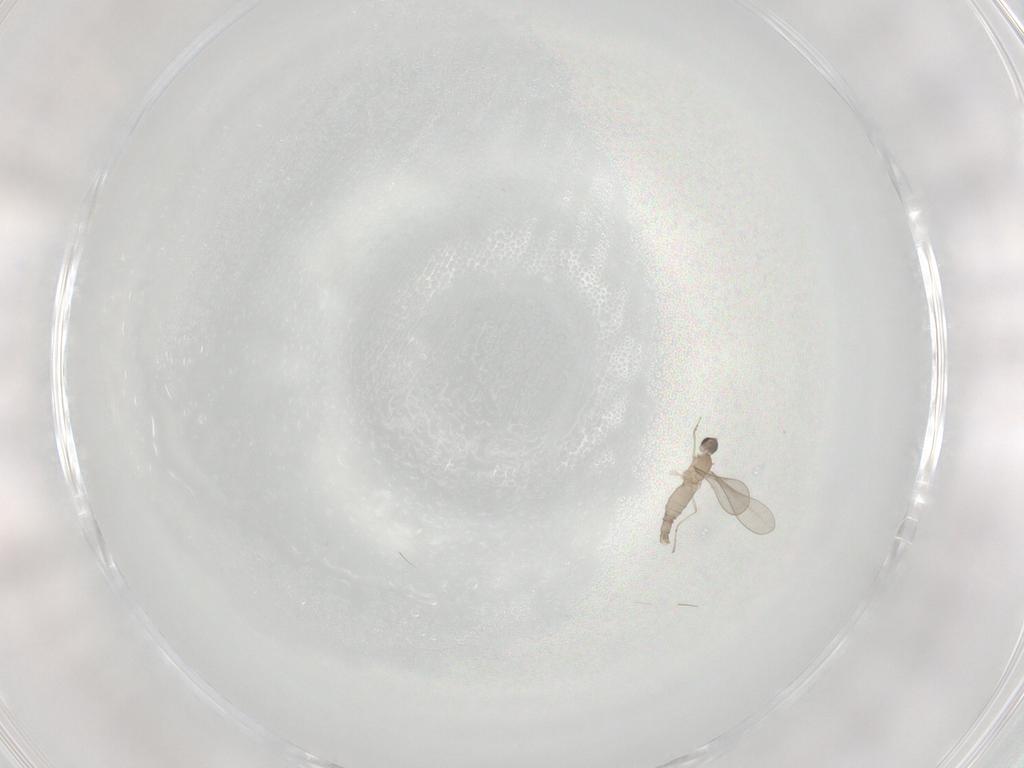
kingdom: Animalia
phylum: Arthropoda
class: Insecta
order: Diptera
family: Cecidomyiidae
